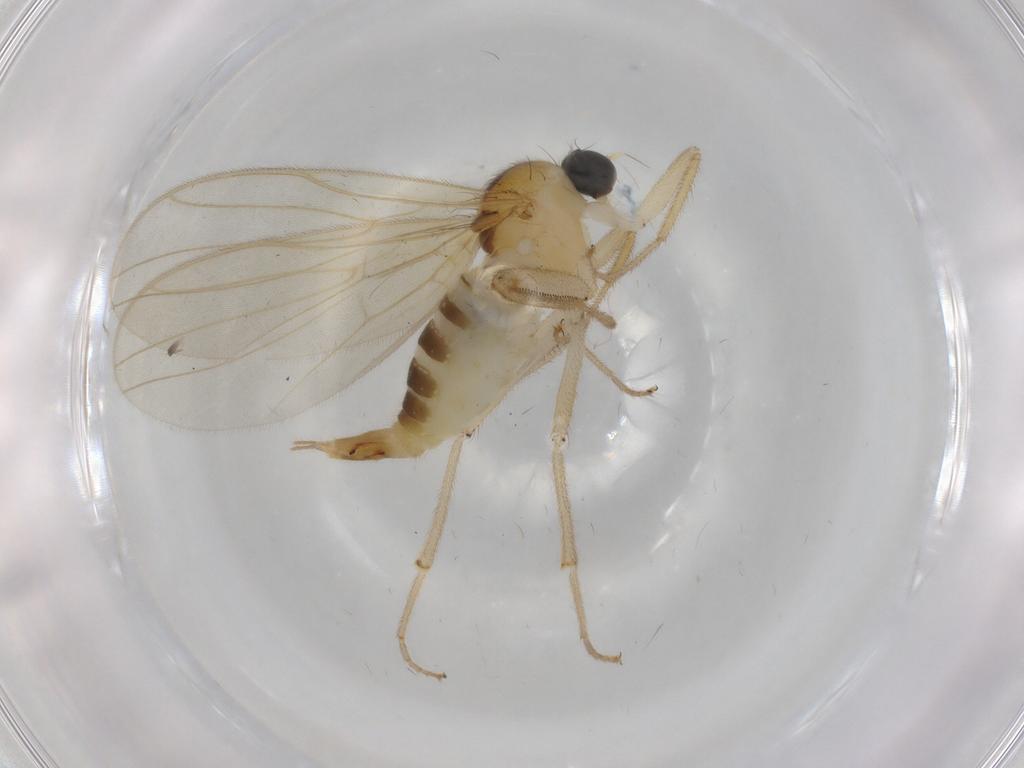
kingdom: Animalia
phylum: Arthropoda
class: Insecta
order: Diptera
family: Hybotidae
